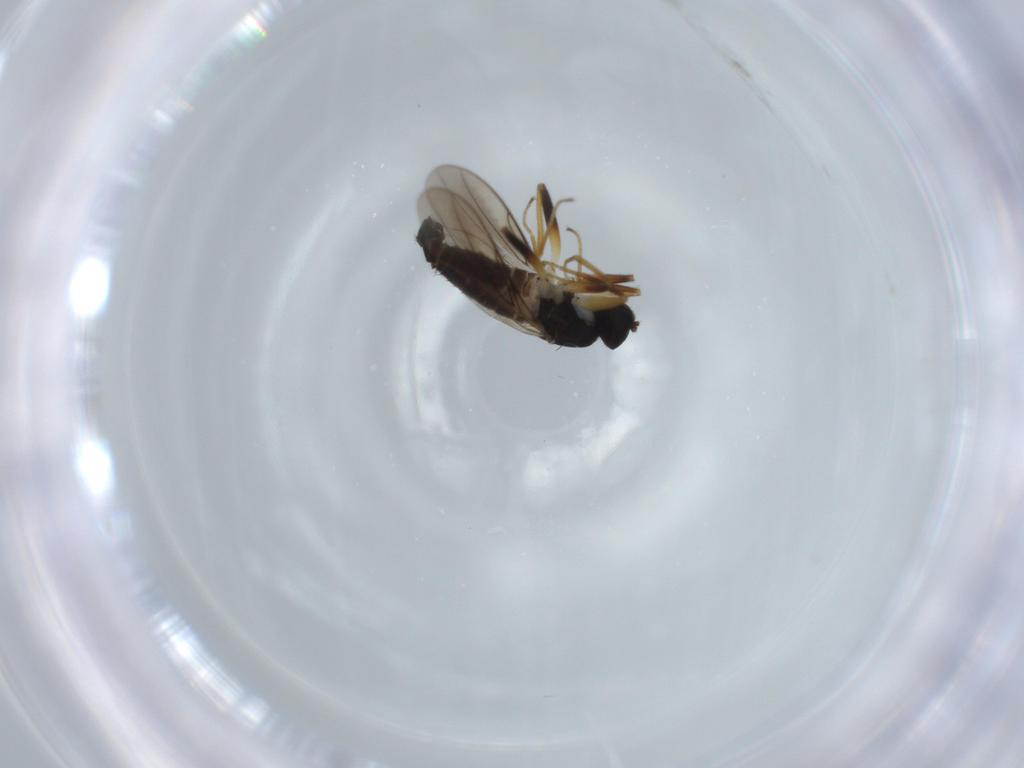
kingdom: Animalia
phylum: Arthropoda
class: Insecta
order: Diptera
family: Hybotidae
